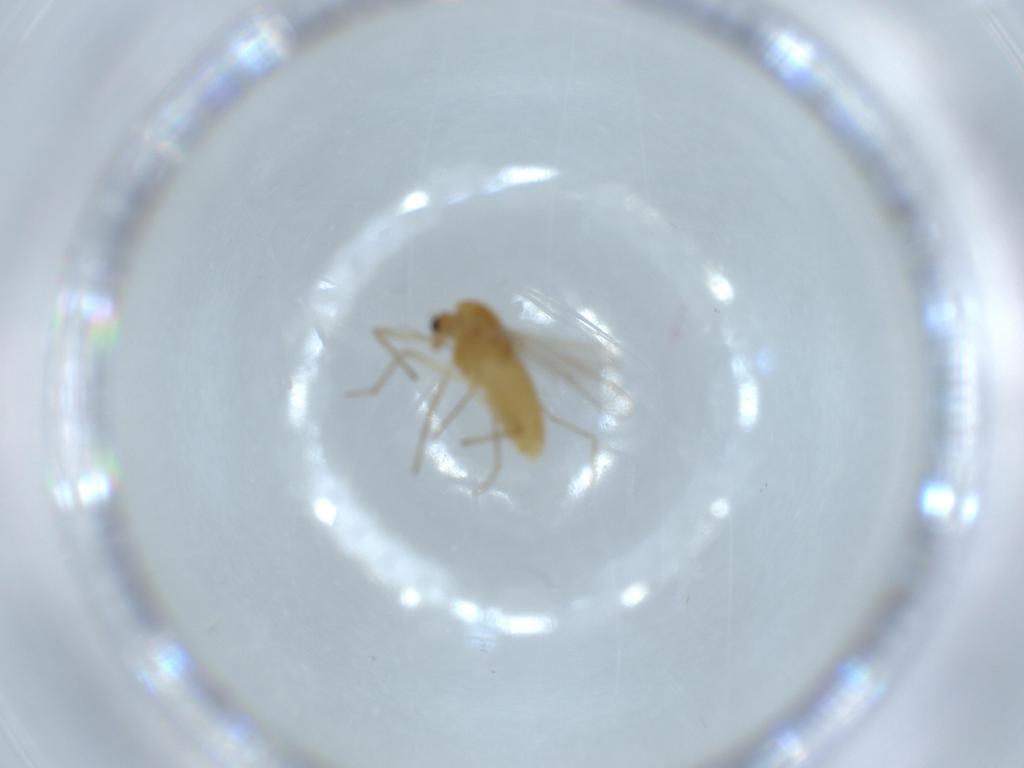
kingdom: Animalia
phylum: Arthropoda
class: Insecta
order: Diptera
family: Chironomidae
